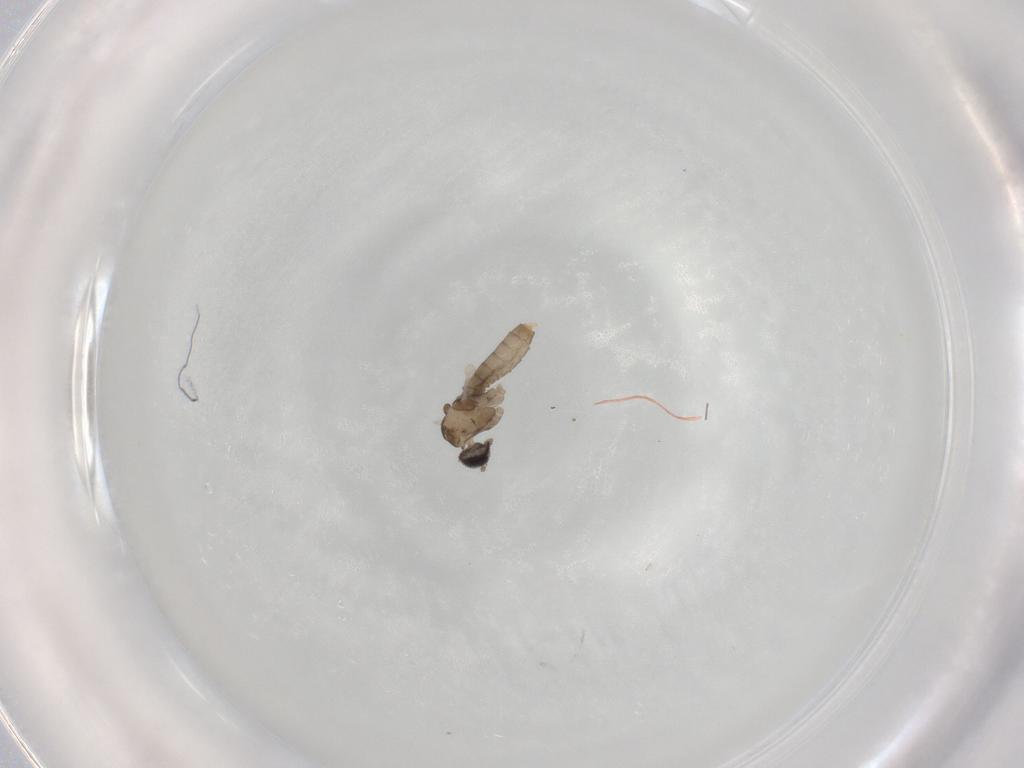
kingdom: Animalia
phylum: Arthropoda
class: Insecta
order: Diptera
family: Cecidomyiidae
